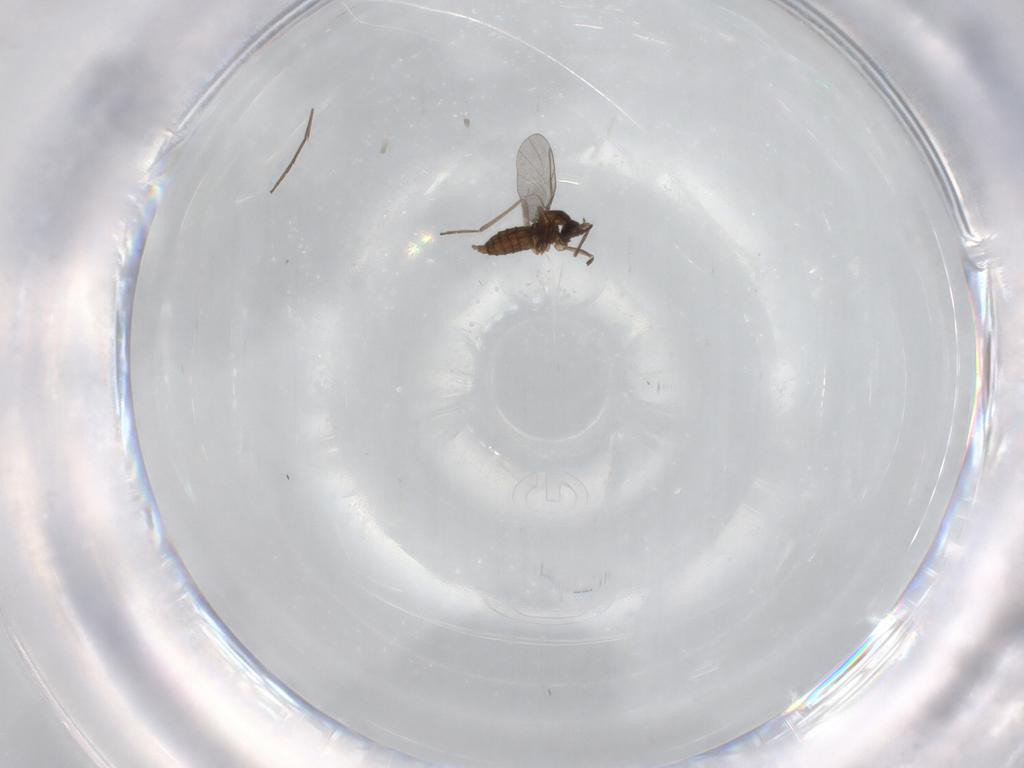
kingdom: Animalia
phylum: Arthropoda
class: Insecta
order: Diptera
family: Cecidomyiidae
